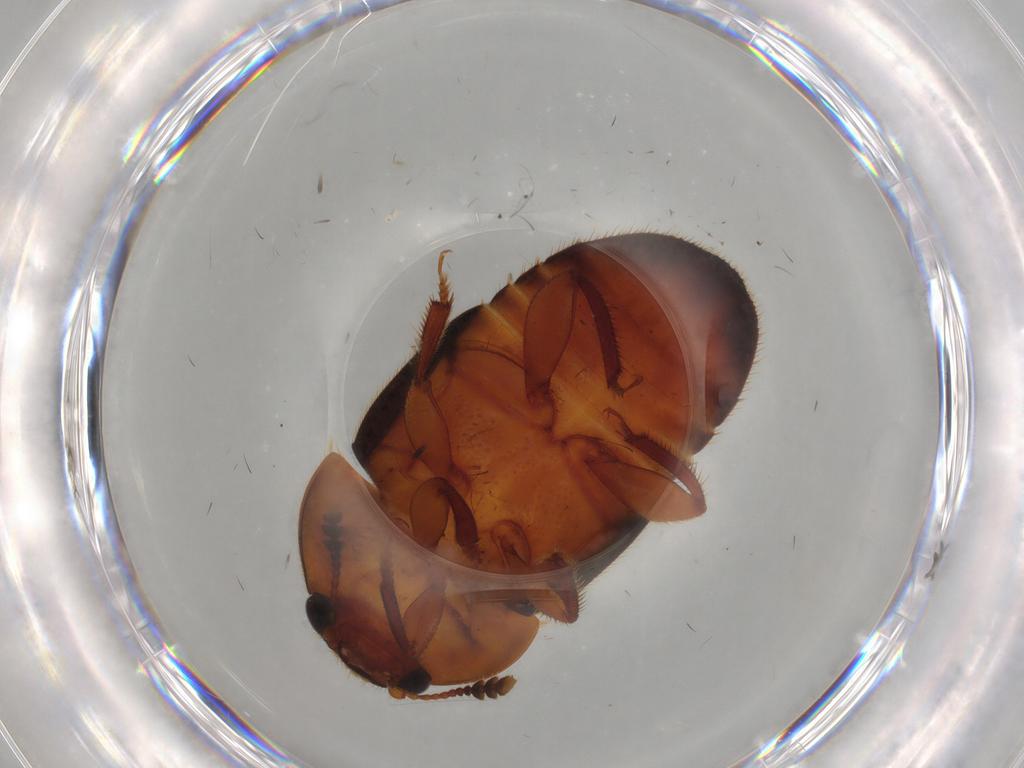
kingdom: Animalia
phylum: Arthropoda
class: Insecta
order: Coleoptera
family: Nitidulidae
